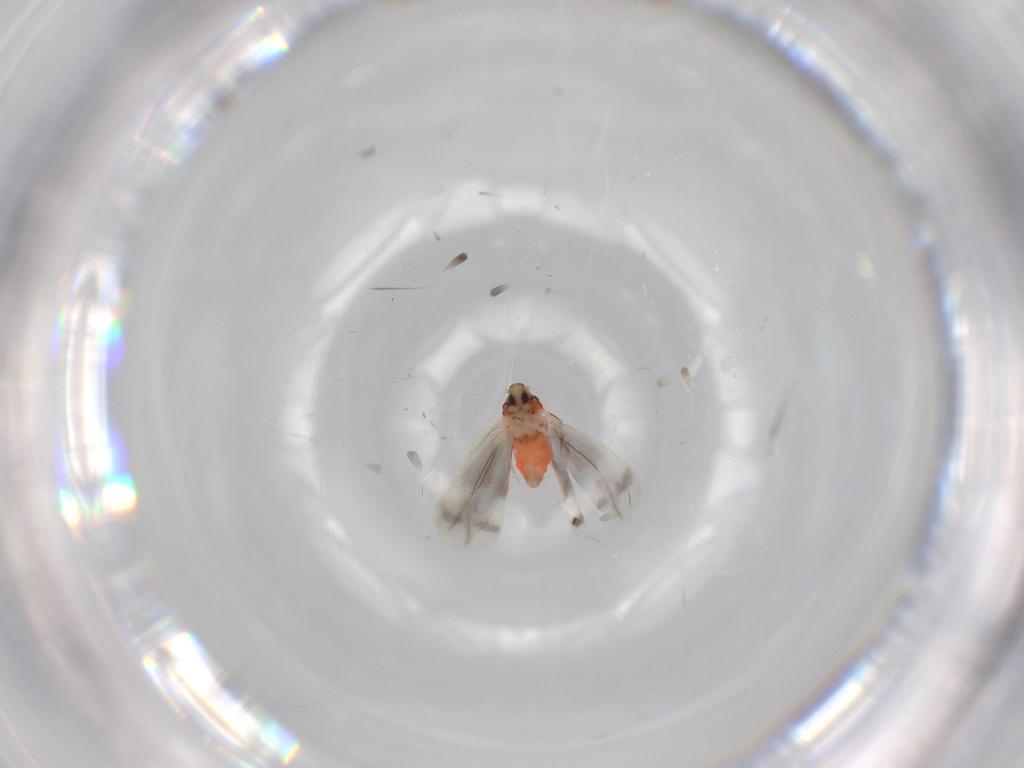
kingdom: Animalia
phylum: Arthropoda
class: Insecta
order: Hemiptera
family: Aleyrodidae
